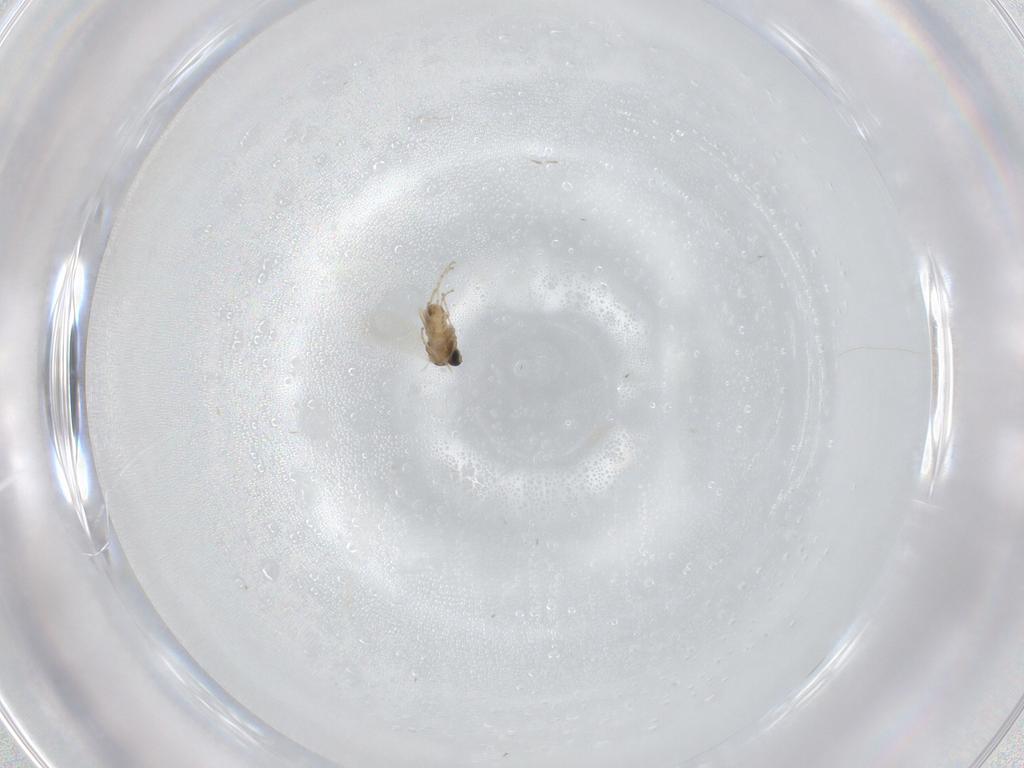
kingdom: Animalia
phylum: Arthropoda
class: Insecta
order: Diptera
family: Cecidomyiidae
